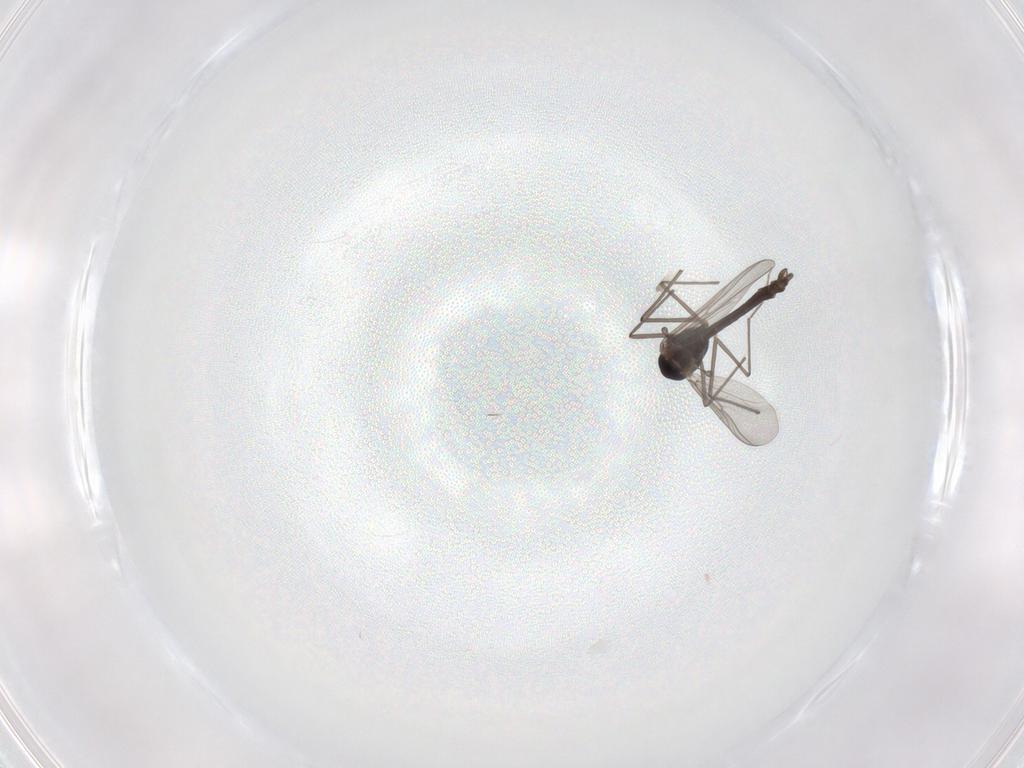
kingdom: Animalia
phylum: Arthropoda
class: Insecta
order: Diptera
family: Chironomidae
